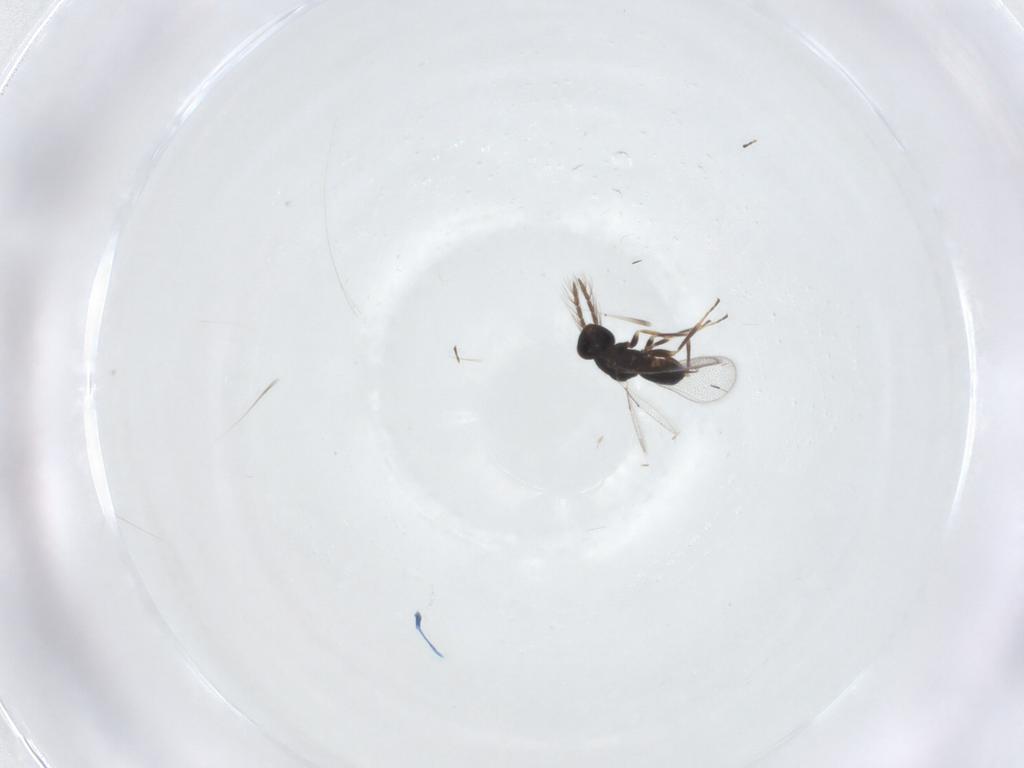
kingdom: Animalia
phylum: Arthropoda
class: Insecta
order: Hymenoptera
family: Eulophidae
